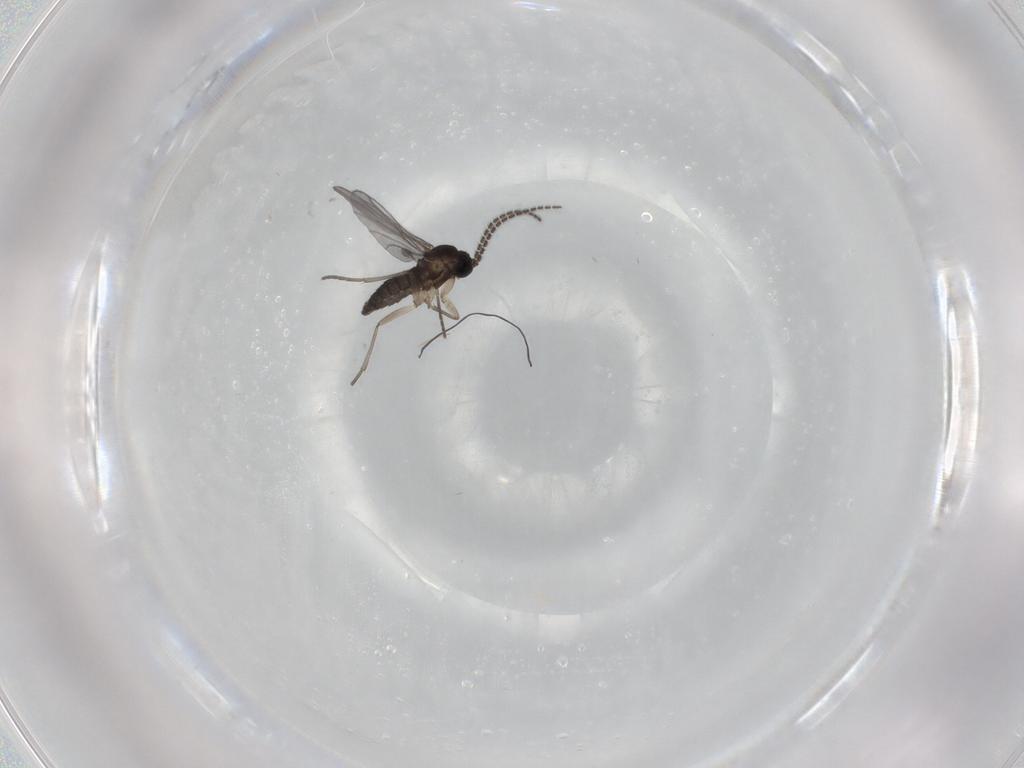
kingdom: Animalia
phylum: Arthropoda
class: Insecta
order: Diptera
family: Sciaridae
